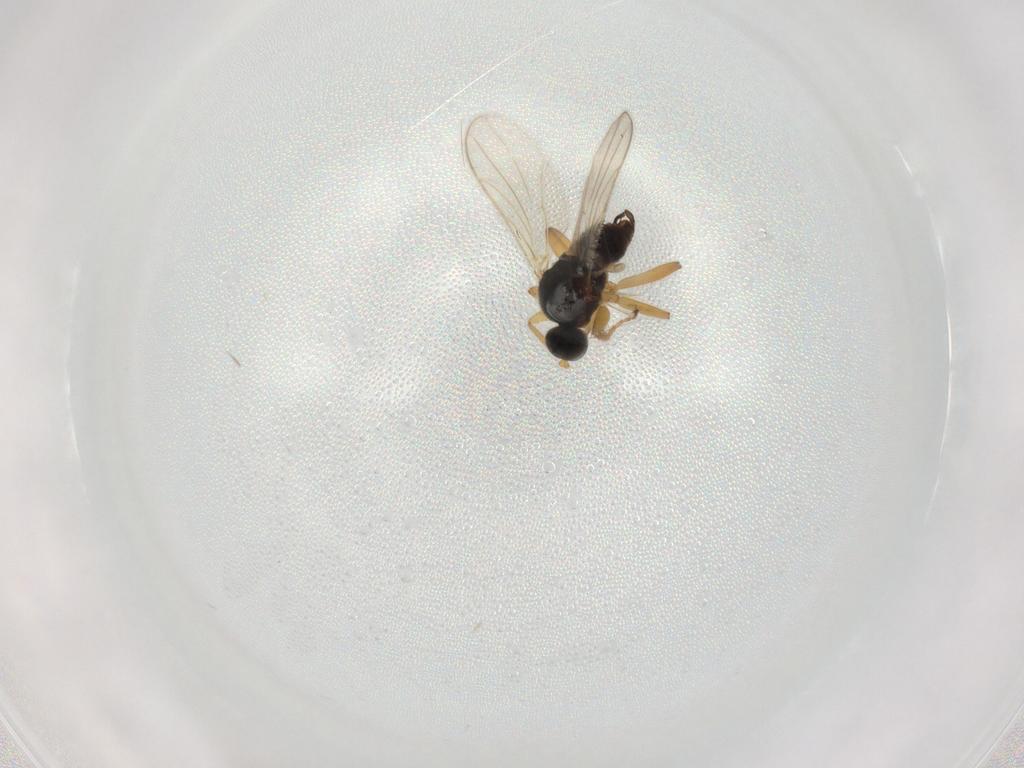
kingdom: Animalia
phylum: Arthropoda
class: Insecta
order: Diptera
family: Hybotidae
